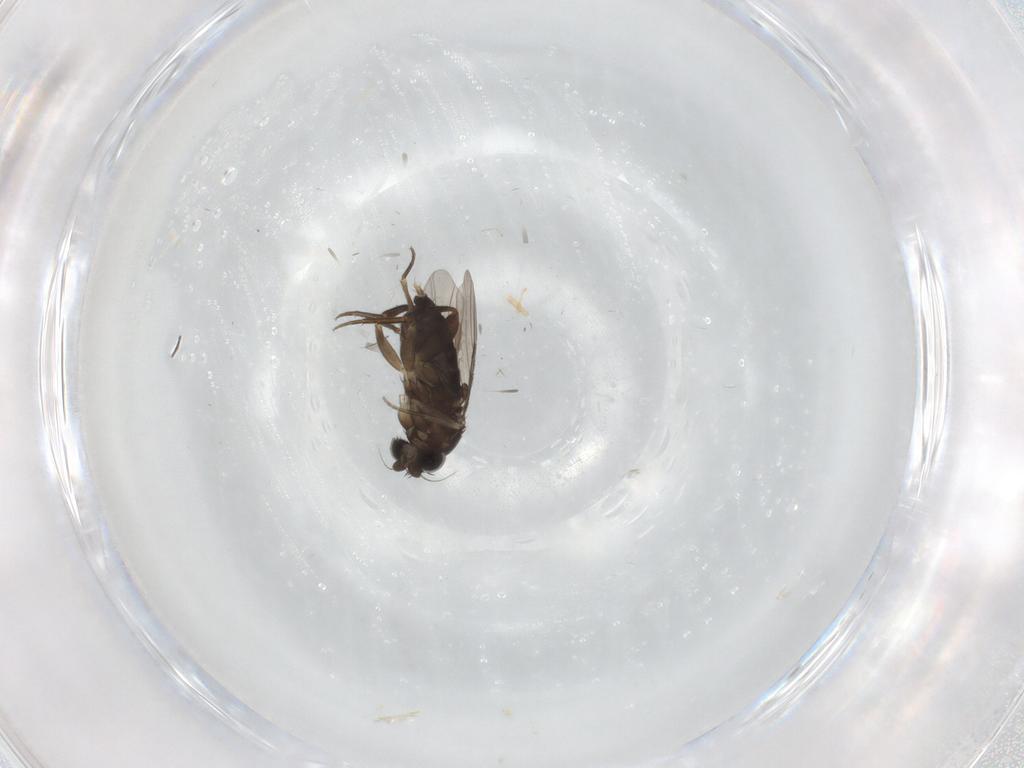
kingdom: Animalia
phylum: Arthropoda
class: Insecta
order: Diptera
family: Phoridae
